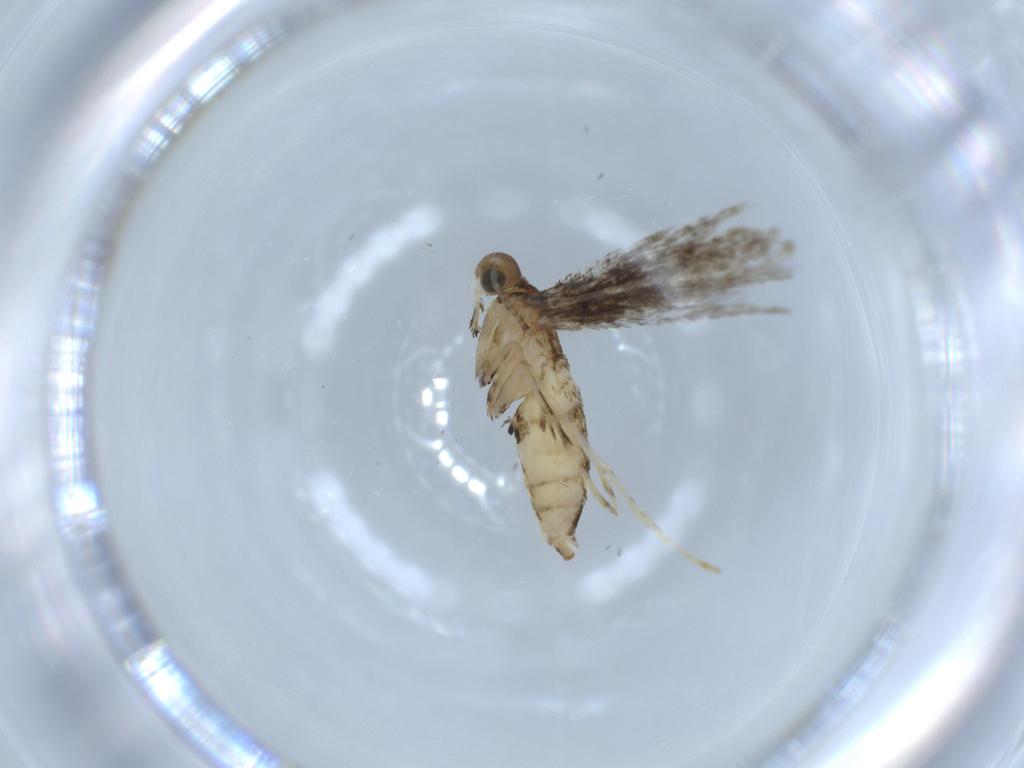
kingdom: Animalia
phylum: Arthropoda
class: Insecta
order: Lepidoptera
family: Gracillariidae
